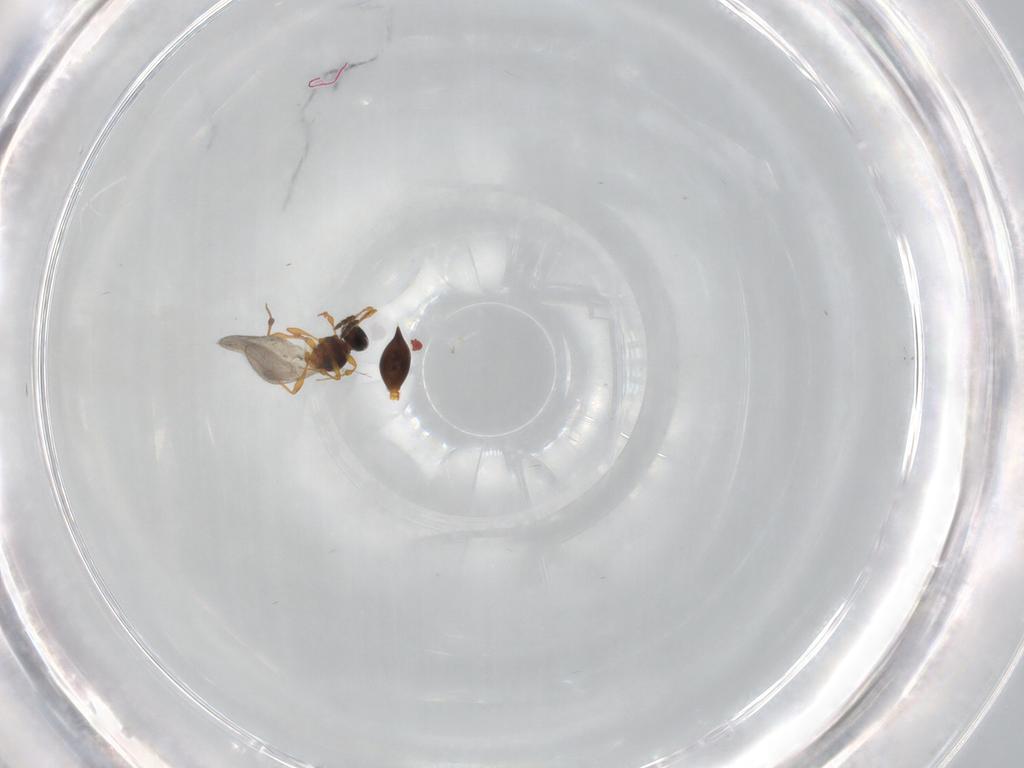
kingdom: Animalia
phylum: Arthropoda
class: Insecta
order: Hymenoptera
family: Platygastridae
